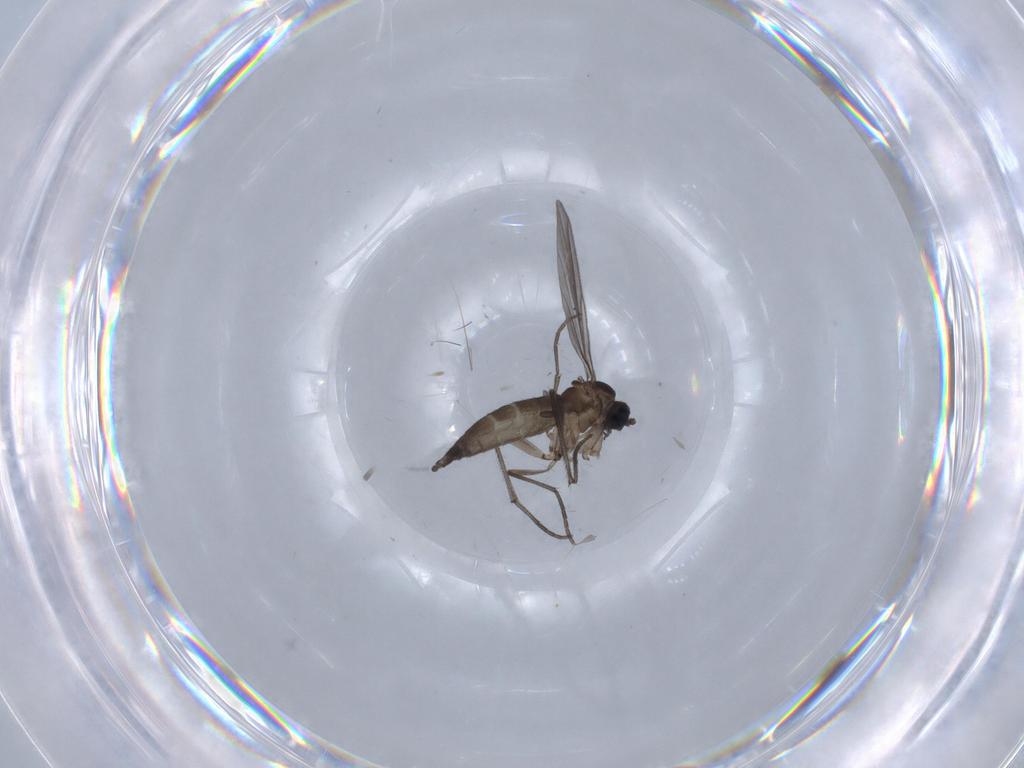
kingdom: Animalia
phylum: Arthropoda
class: Insecta
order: Diptera
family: Chironomidae
